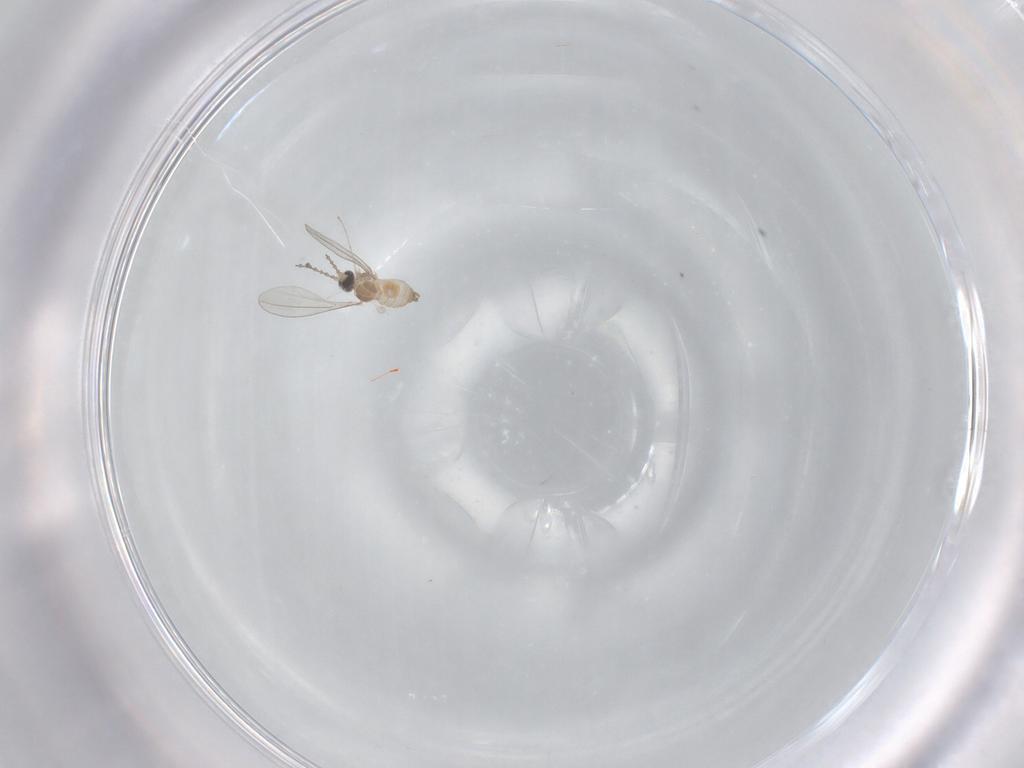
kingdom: Animalia
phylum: Arthropoda
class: Insecta
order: Diptera
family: Cecidomyiidae
